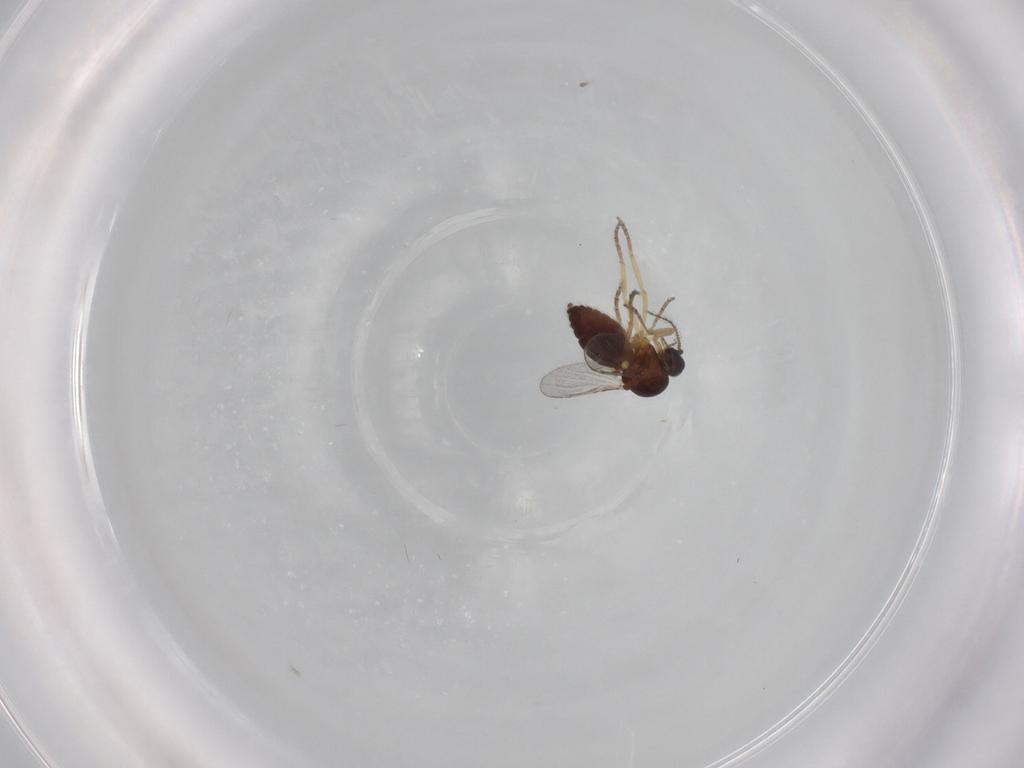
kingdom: Animalia
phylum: Arthropoda
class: Insecta
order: Diptera
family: Ceratopogonidae
